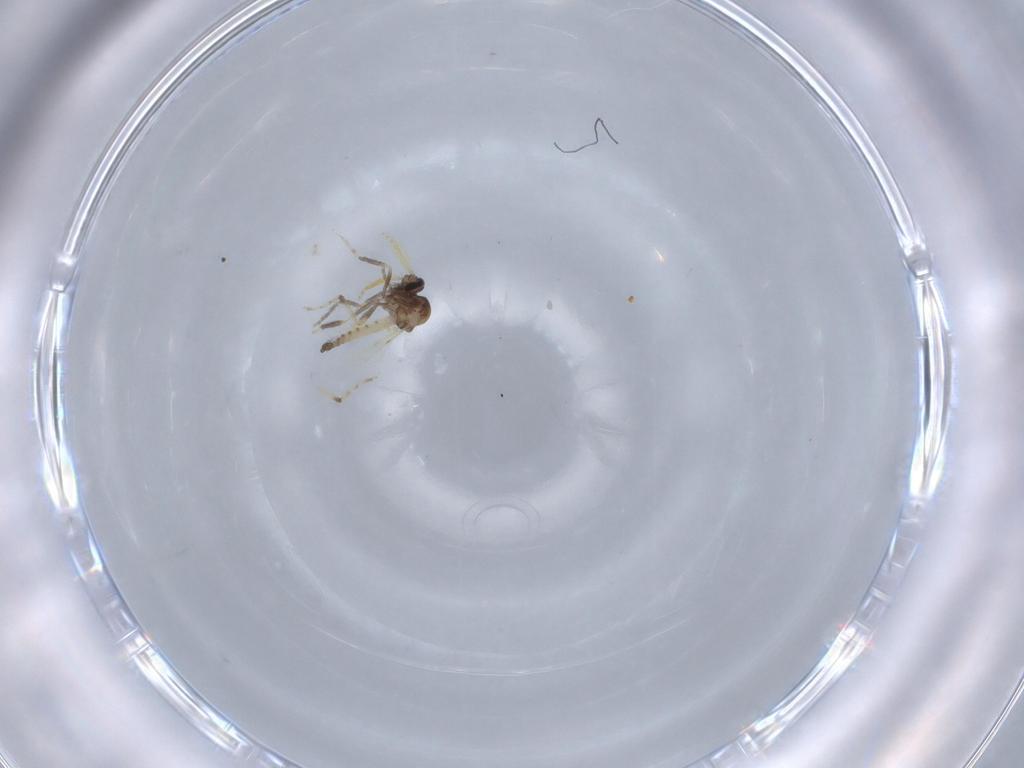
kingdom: Animalia
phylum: Arthropoda
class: Insecta
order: Diptera
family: Ceratopogonidae
